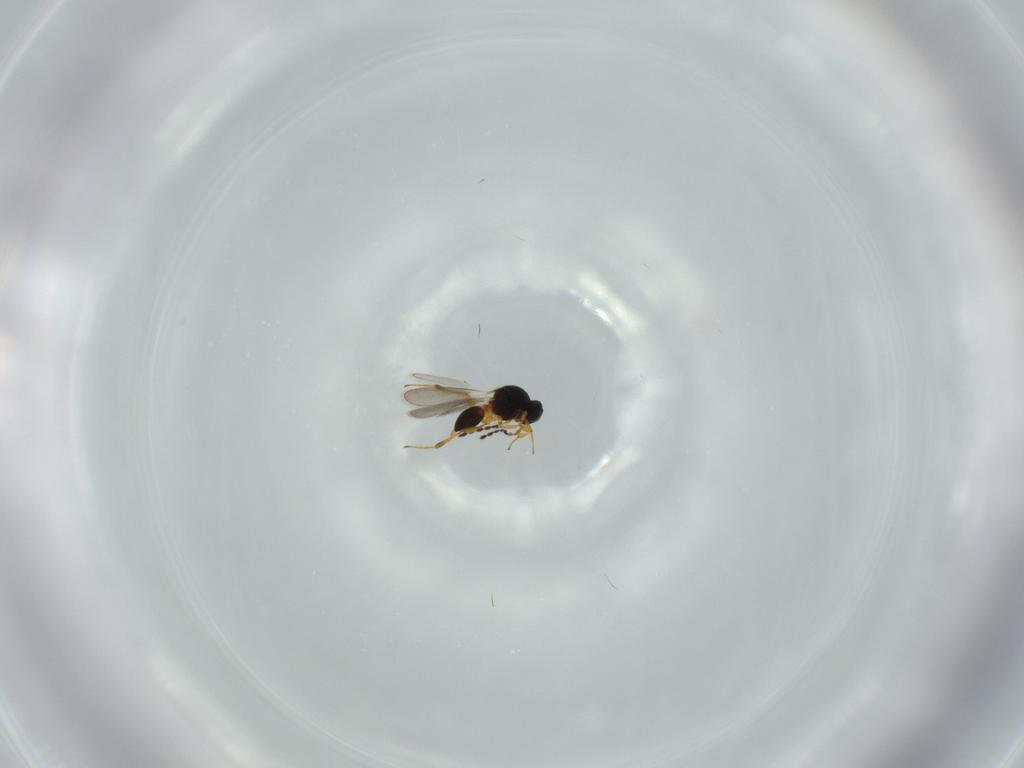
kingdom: Animalia
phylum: Arthropoda
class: Insecta
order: Hymenoptera
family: Platygastridae
